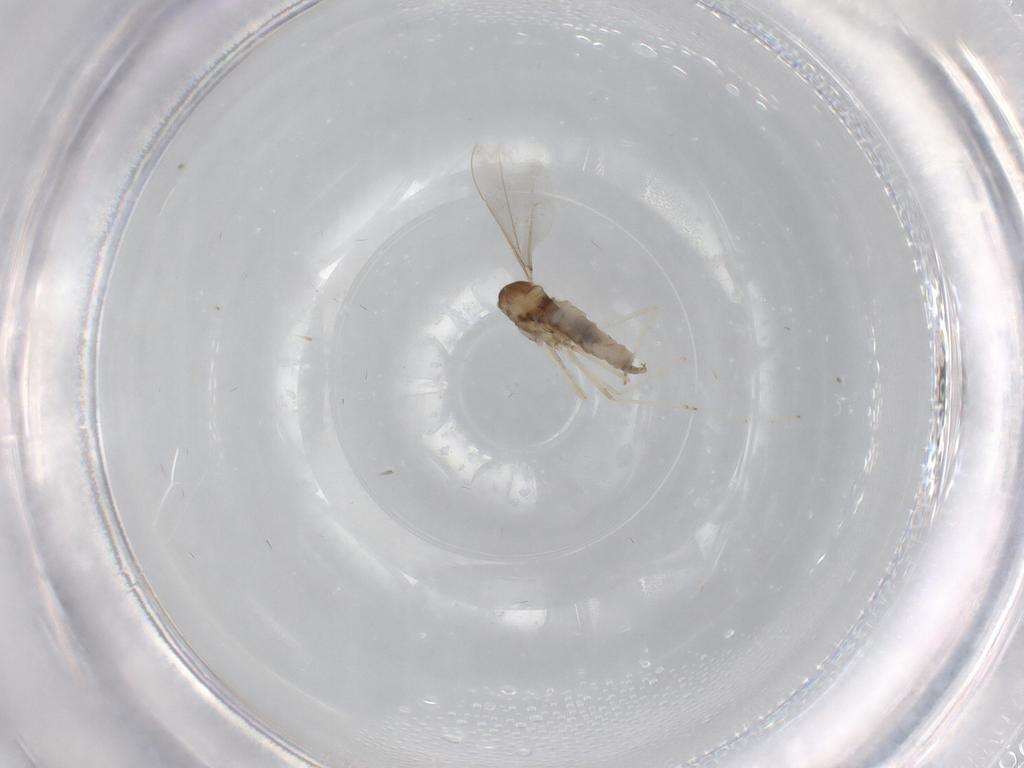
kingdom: Animalia
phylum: Arthropoda
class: Insecta
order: Diptera
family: Cecidomyiidae
